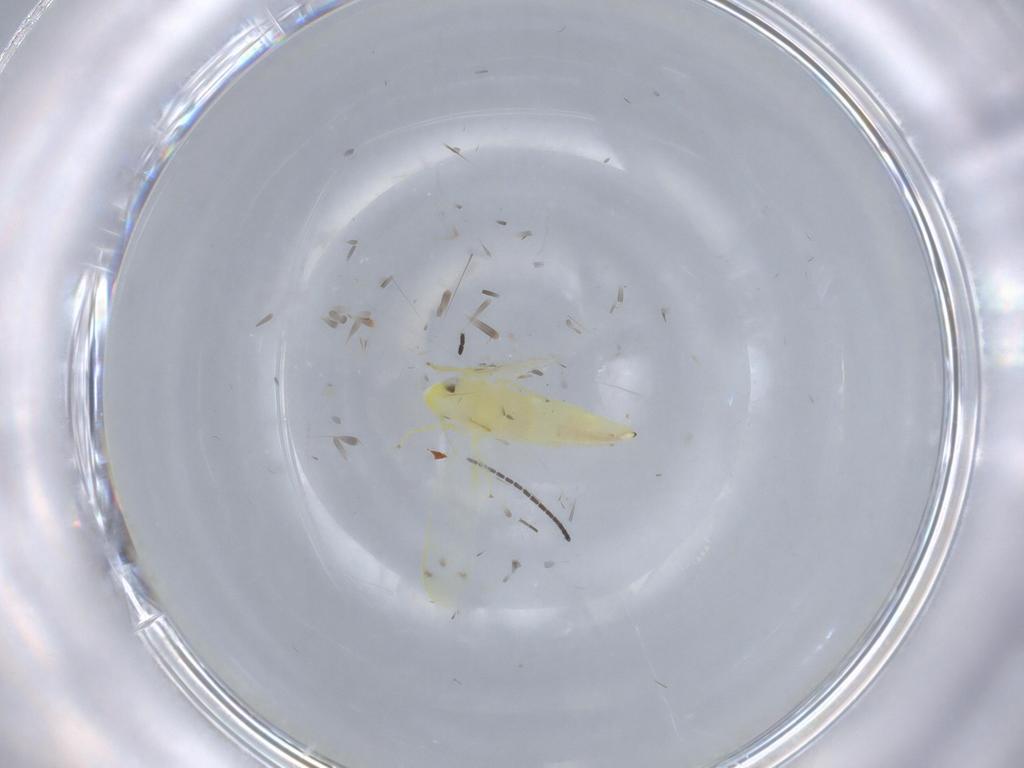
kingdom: Animalia
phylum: Arthropoda
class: Insecta
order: Hemiptera
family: Cicadellidae
